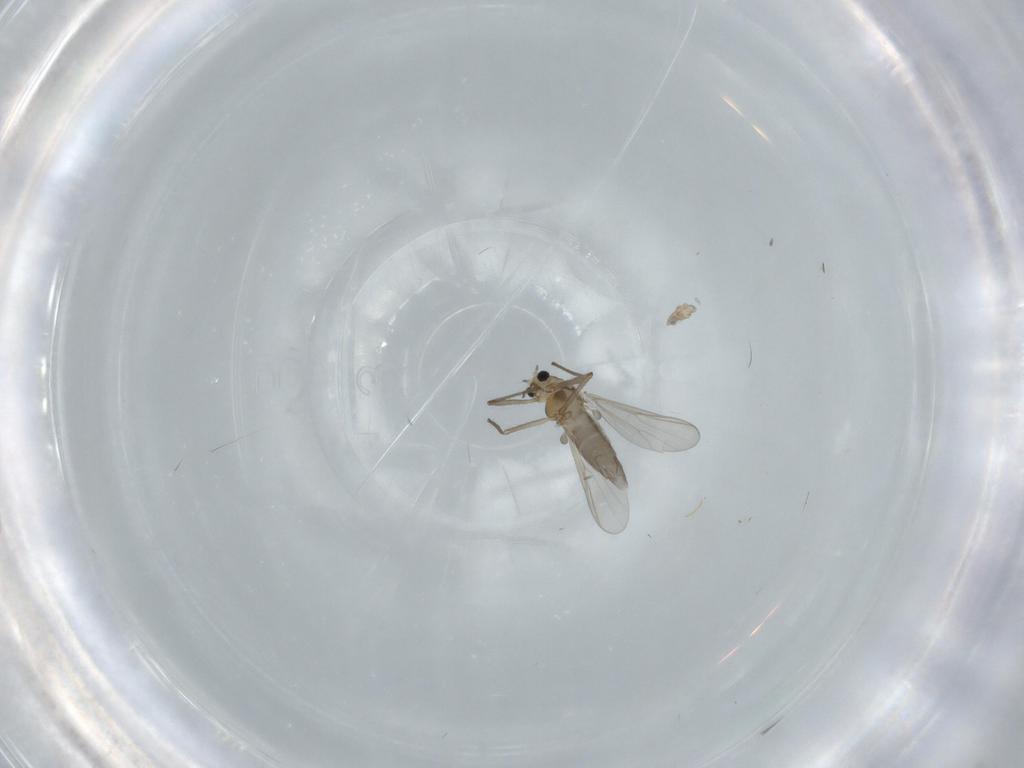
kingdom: Animalia
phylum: Arthropoda
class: Insecta
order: Diptera
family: Chironomidae
